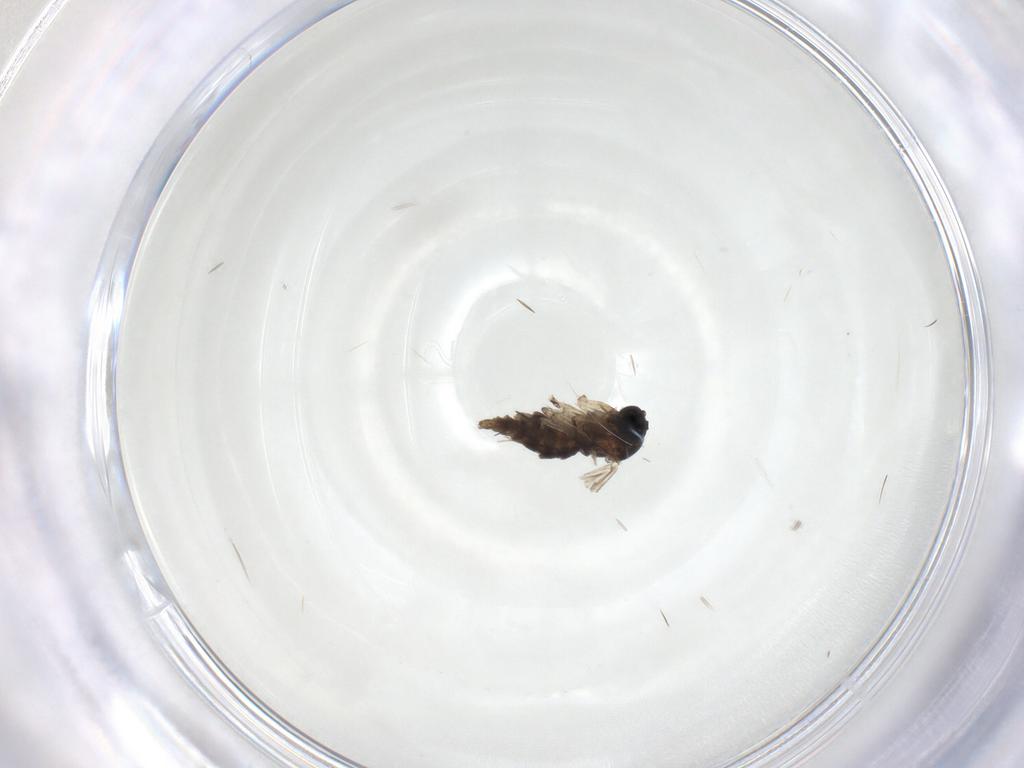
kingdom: Animalia
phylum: Arthropoda
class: Insecta
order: Diptera
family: Sciaridae
